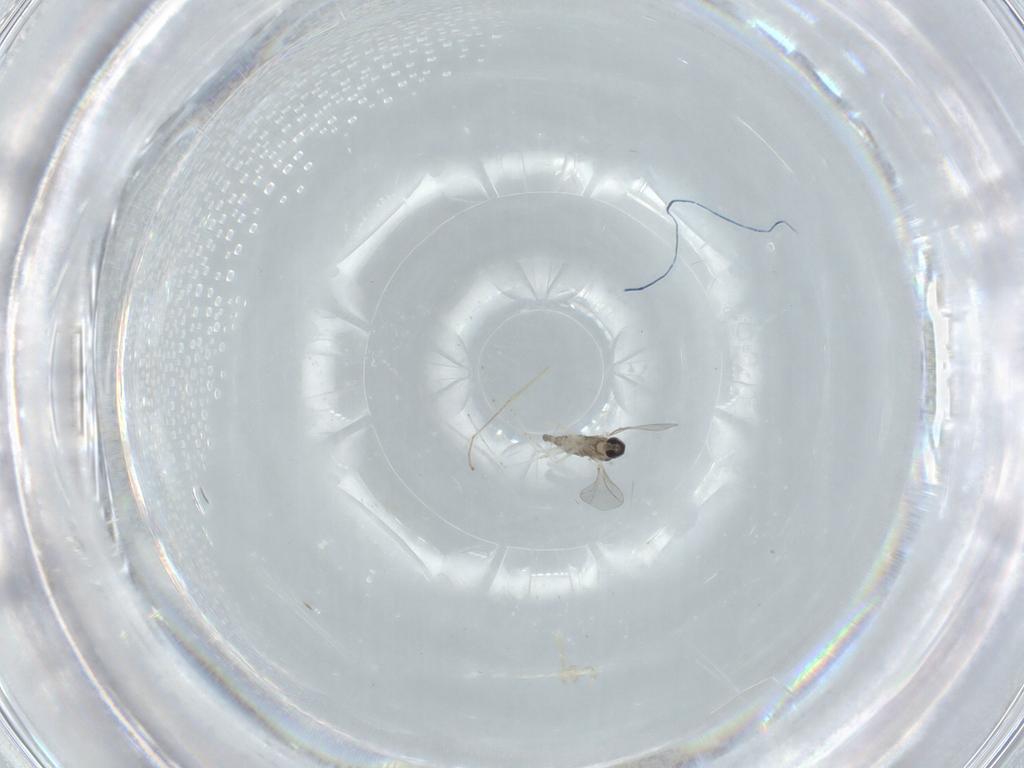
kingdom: Animalia
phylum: Arthropoda
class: Insecta
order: Diptera
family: Cecidomyiidae
